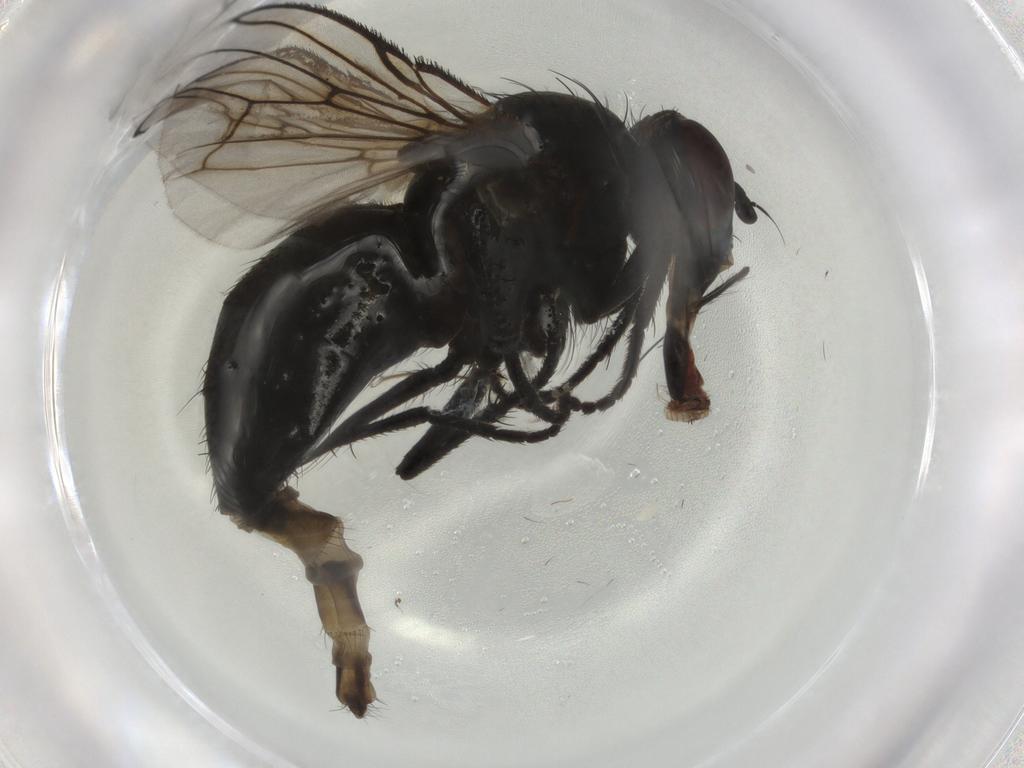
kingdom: Animalia
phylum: Arthropoda
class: Insecta
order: Diptera
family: Muscidae
